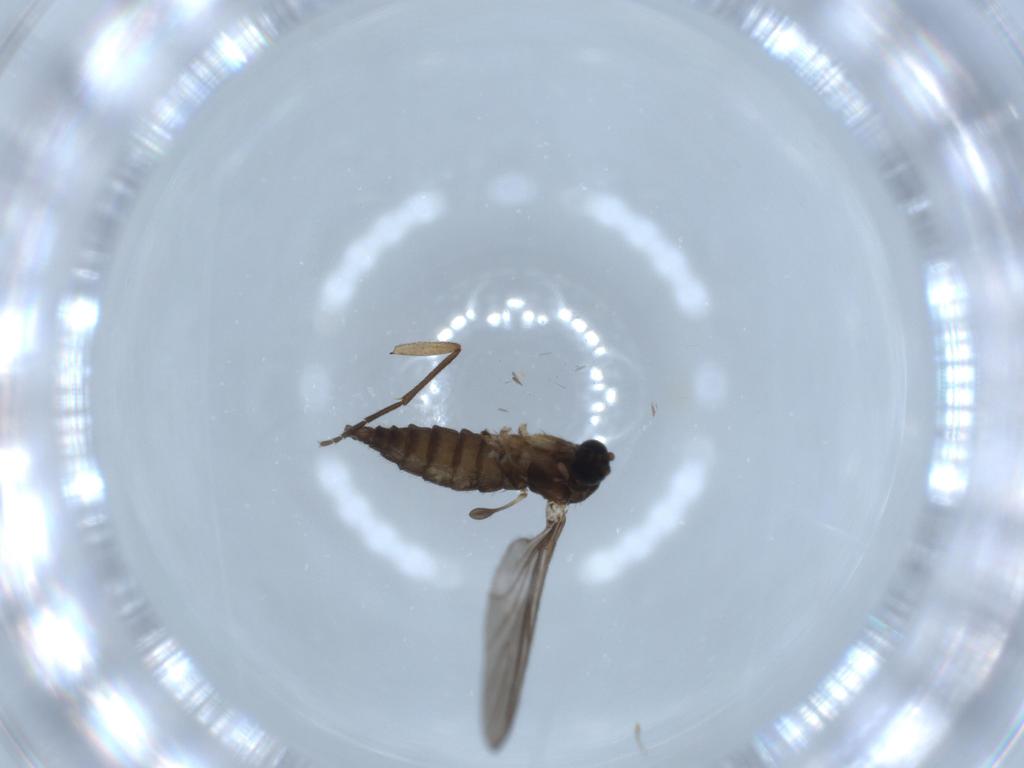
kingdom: Animalia
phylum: Arthropoda
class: Insecta
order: Diptera
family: Sciaridae
